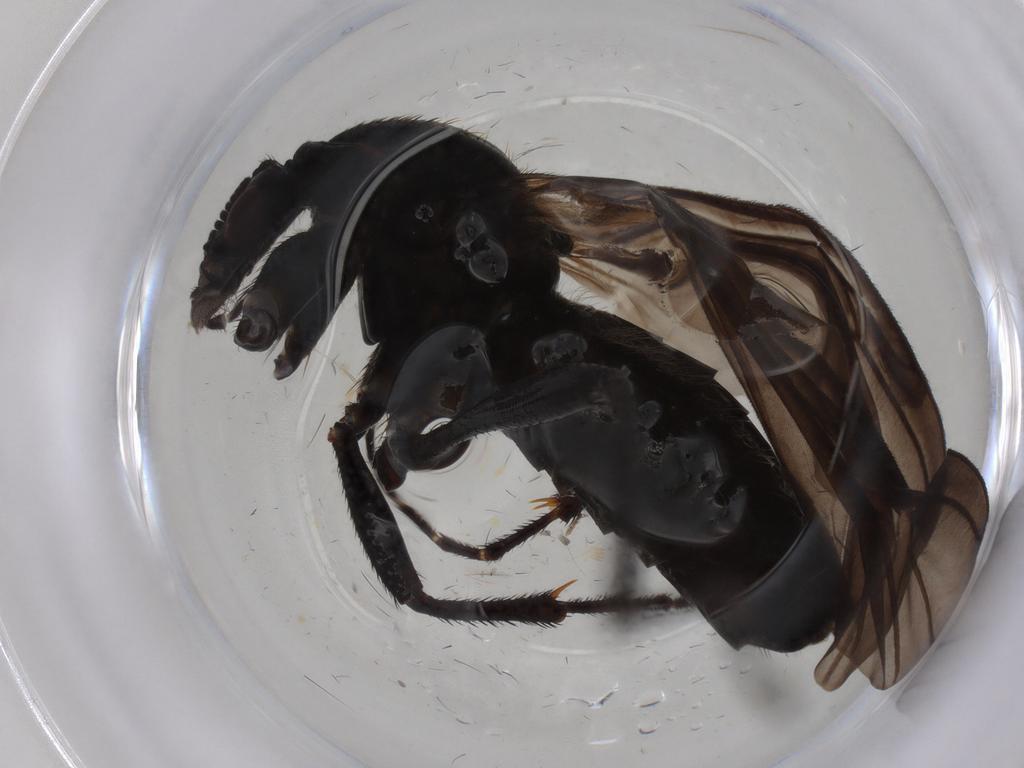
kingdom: Animalia
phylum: Arthropoda
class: Insecta
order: Diptera
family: Bibionidae
